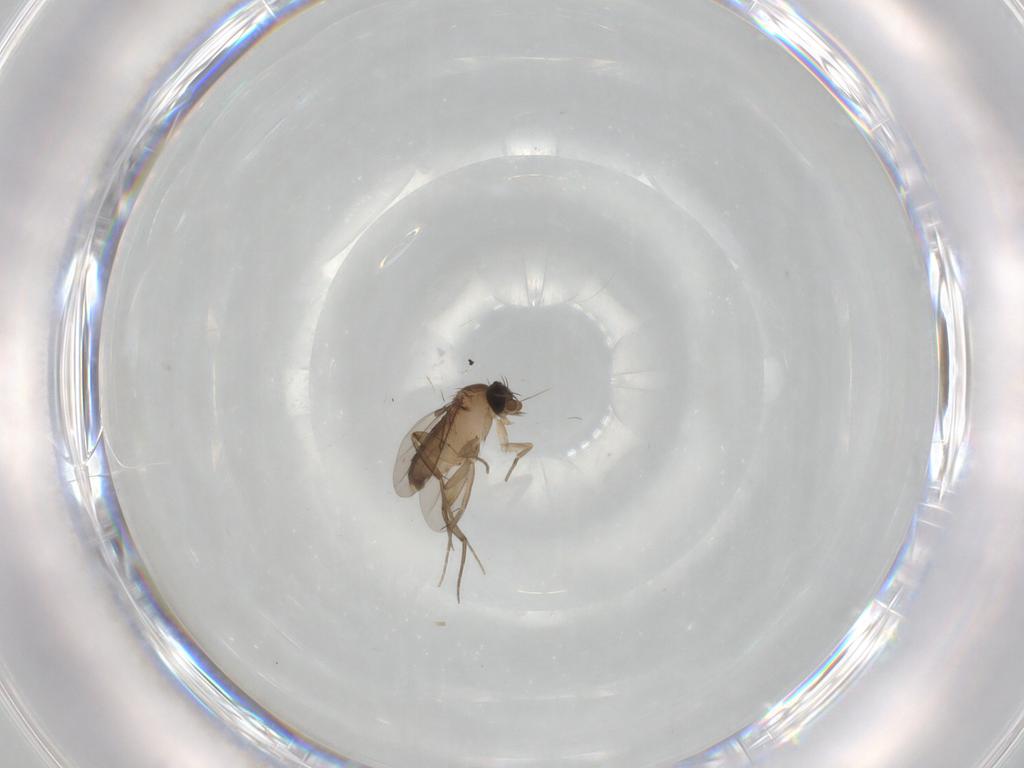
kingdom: Animalia
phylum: Arthropoda
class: Insecta
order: Diptera
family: Phoridae
